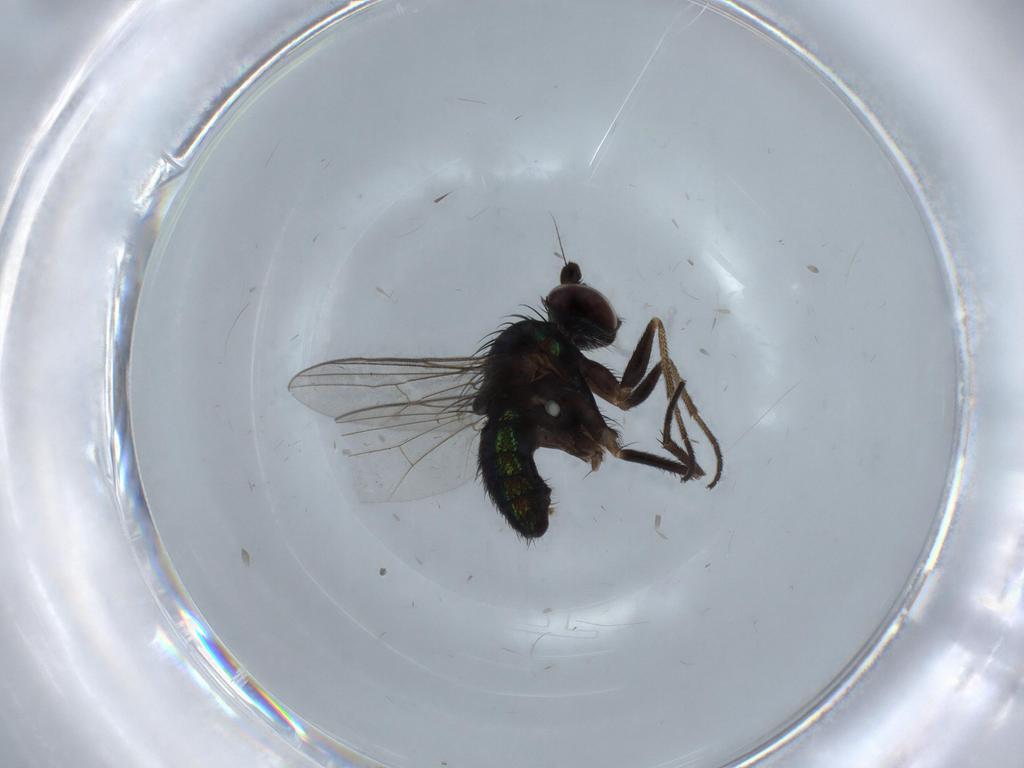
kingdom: Animalia
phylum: Arthropoda
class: Insecta
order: Diptera
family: Dolichopodidae
